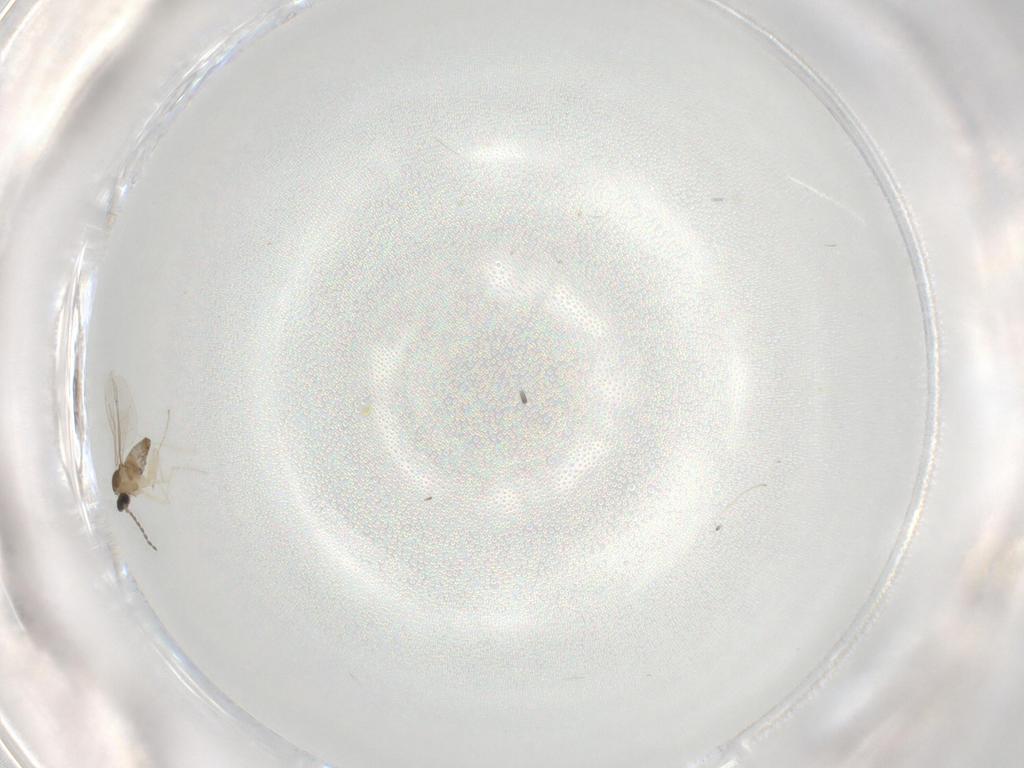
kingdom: Animalia
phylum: Arthropoda
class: Insecta
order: Diptera
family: Cecidomyiidae
